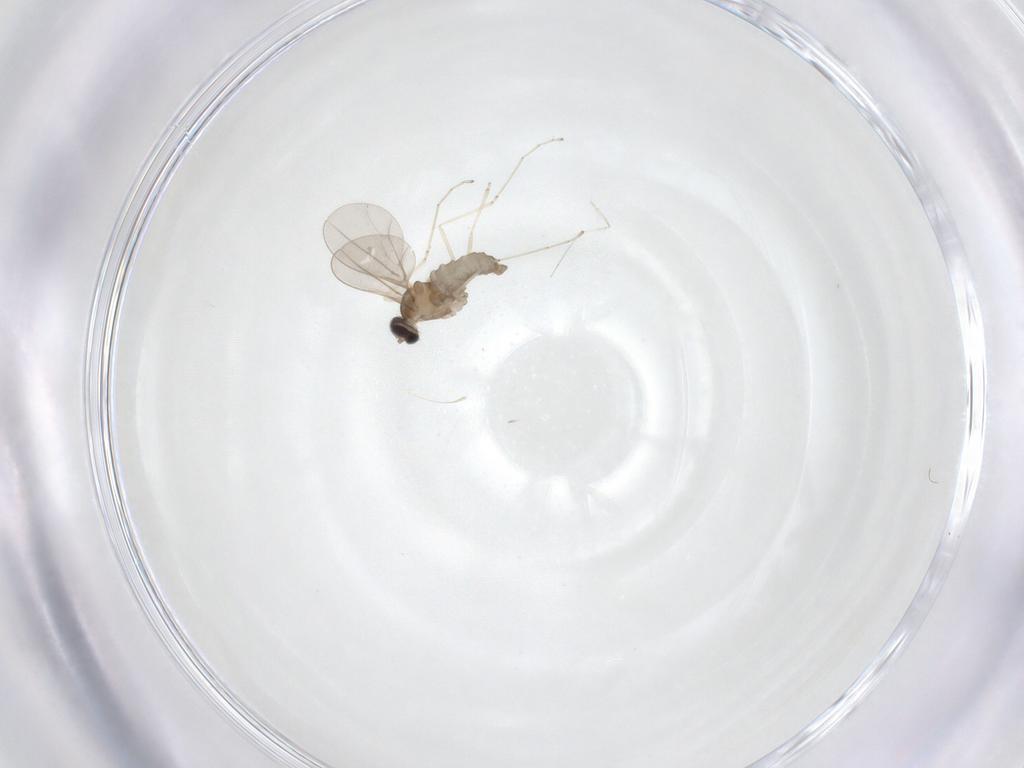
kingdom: Animalia
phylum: Arthropoda
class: Insecta
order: Diptera
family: Cecidomyiidae
